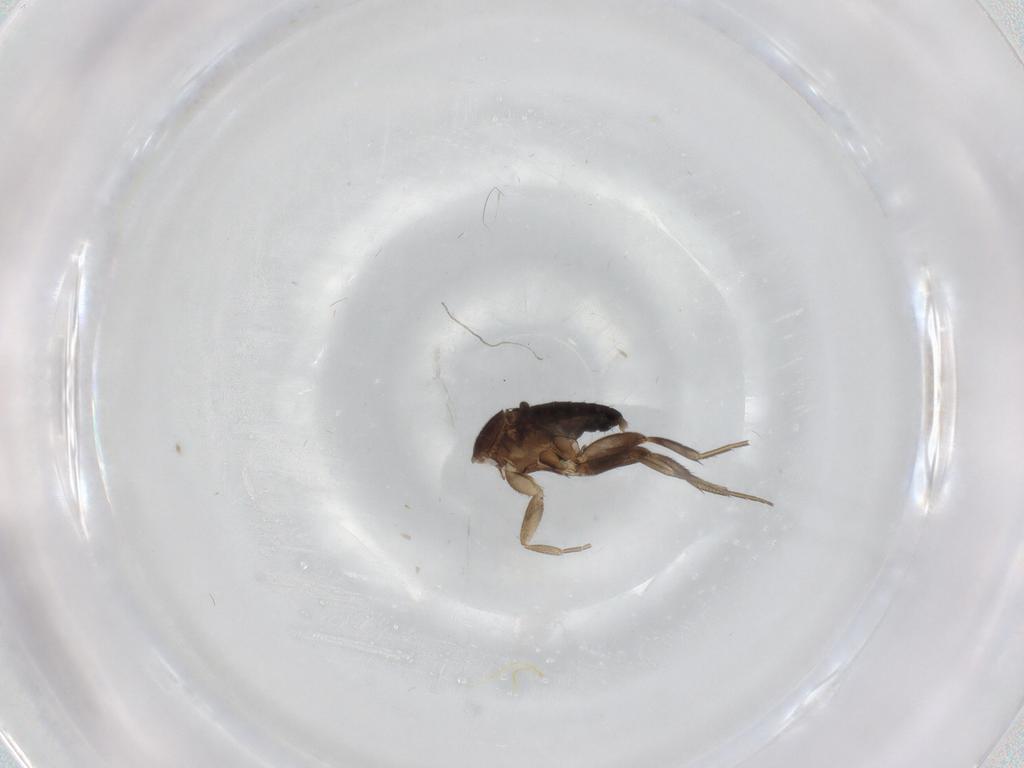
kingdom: Animalia
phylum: Arthropoda
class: Insecta
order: Diptera
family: Phoridae
